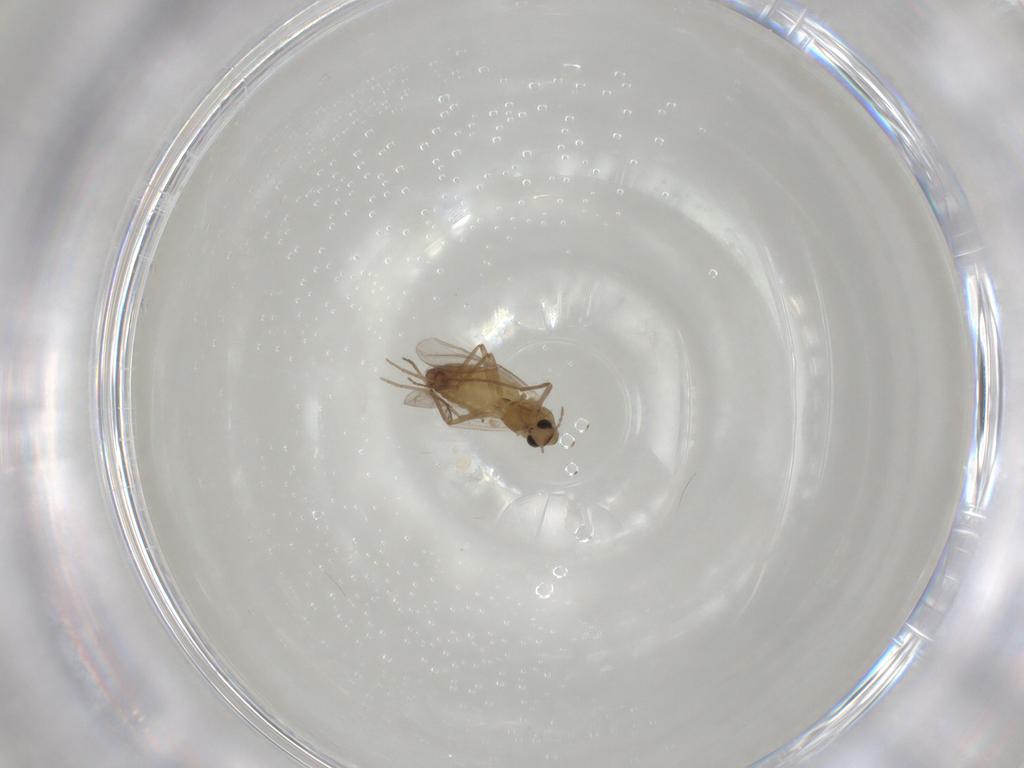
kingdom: Animalia
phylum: Arthropoda
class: Insecta
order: Diptera
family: Chironomidae
